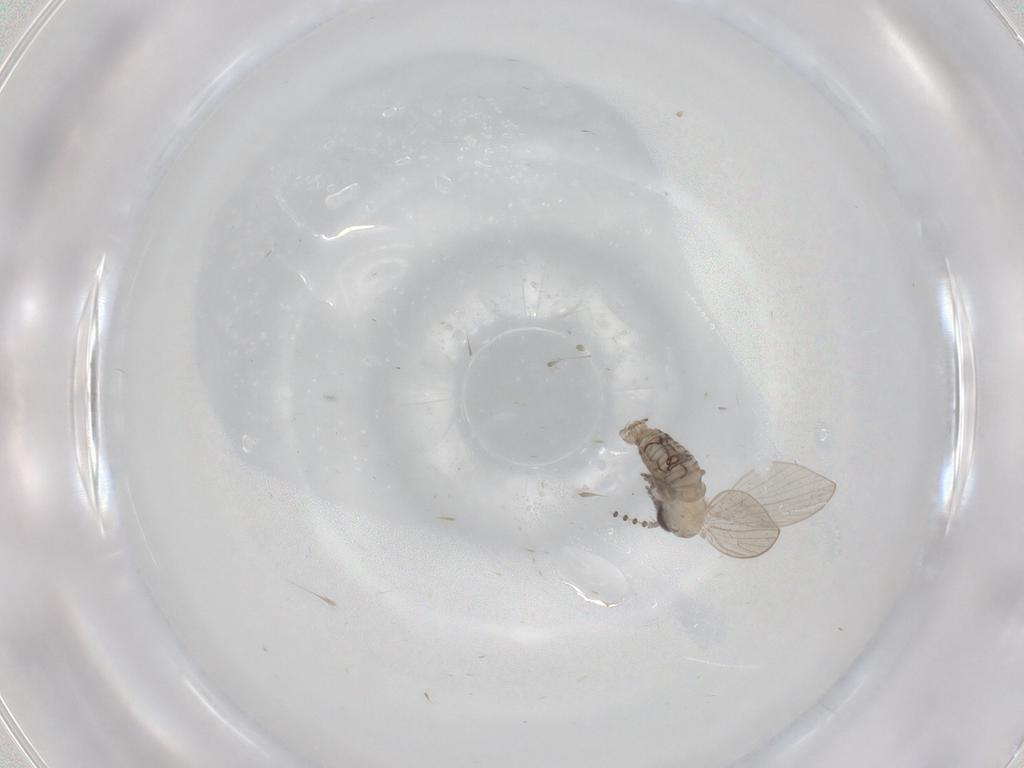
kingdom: Animalia
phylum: Arthropoda
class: Insecta
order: Diptera
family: Psychodidae
